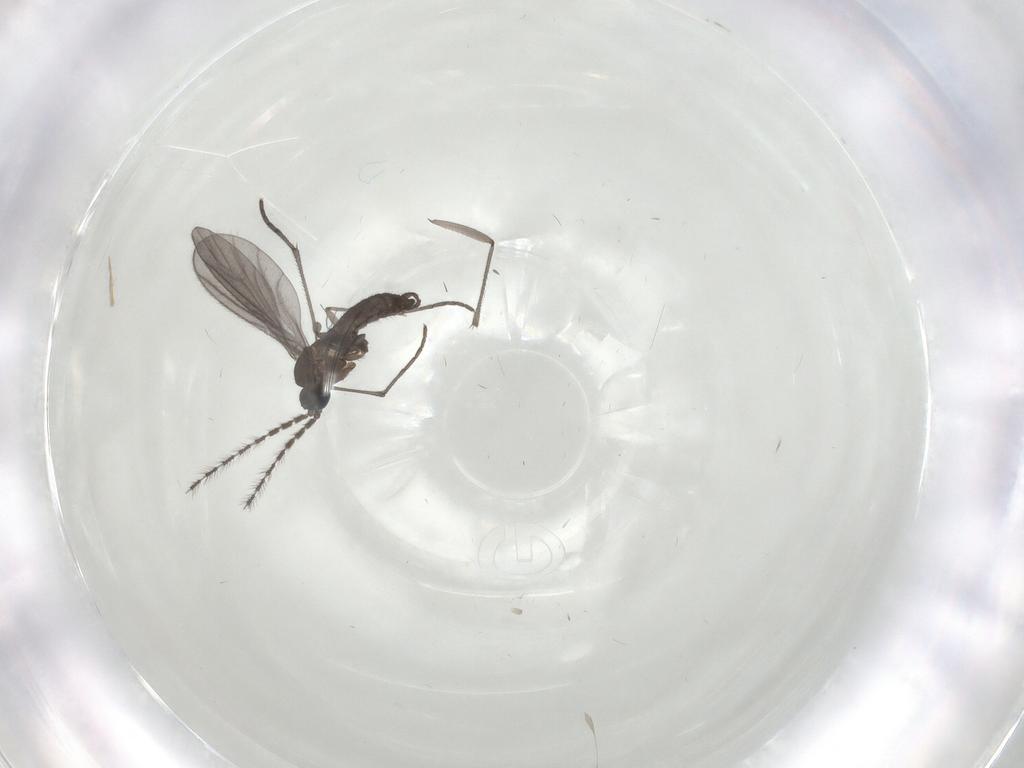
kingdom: Animalia
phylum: Arthropoda
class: Insecta
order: Diptera
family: Sciaridae
